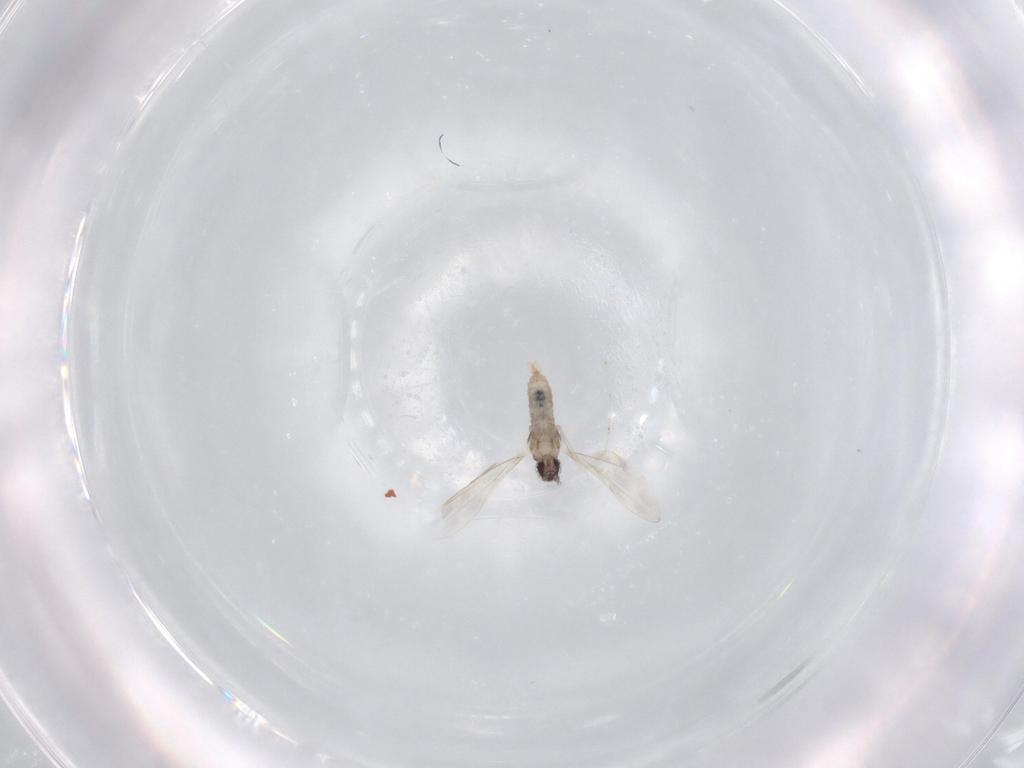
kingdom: Animalia
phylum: Arthropoda
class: Insecta
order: Diptera
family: Cecidomyiidae
